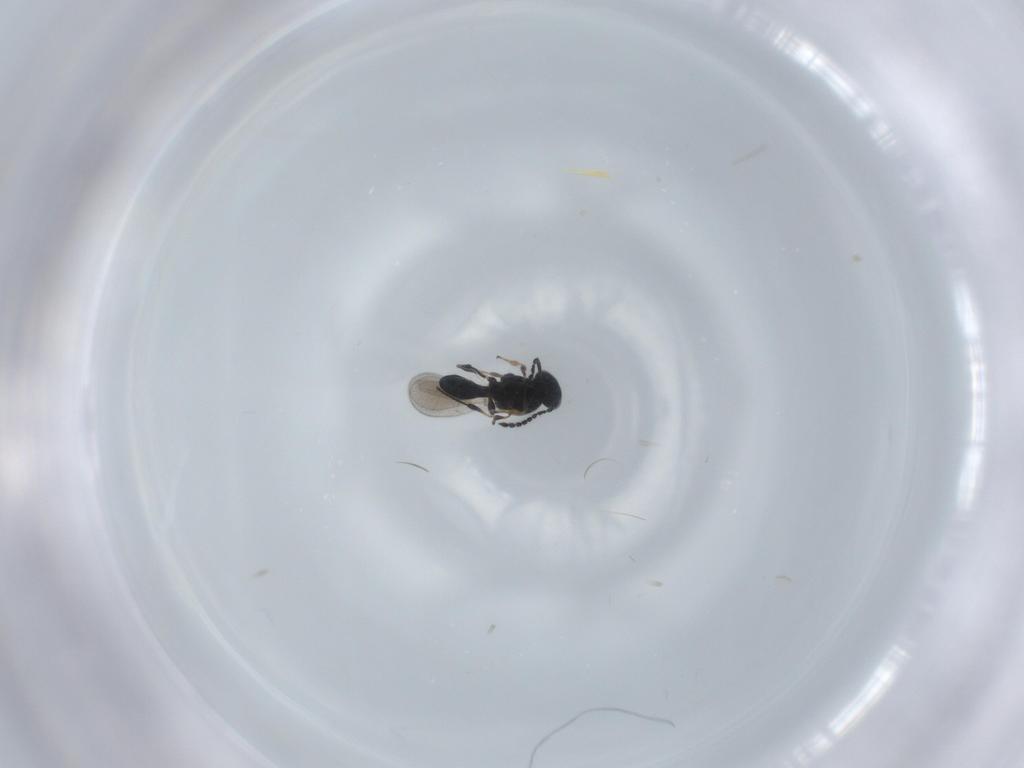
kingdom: Animalia
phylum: Arthropoda
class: Insecta
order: Hymenoptera
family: Platygastridae
